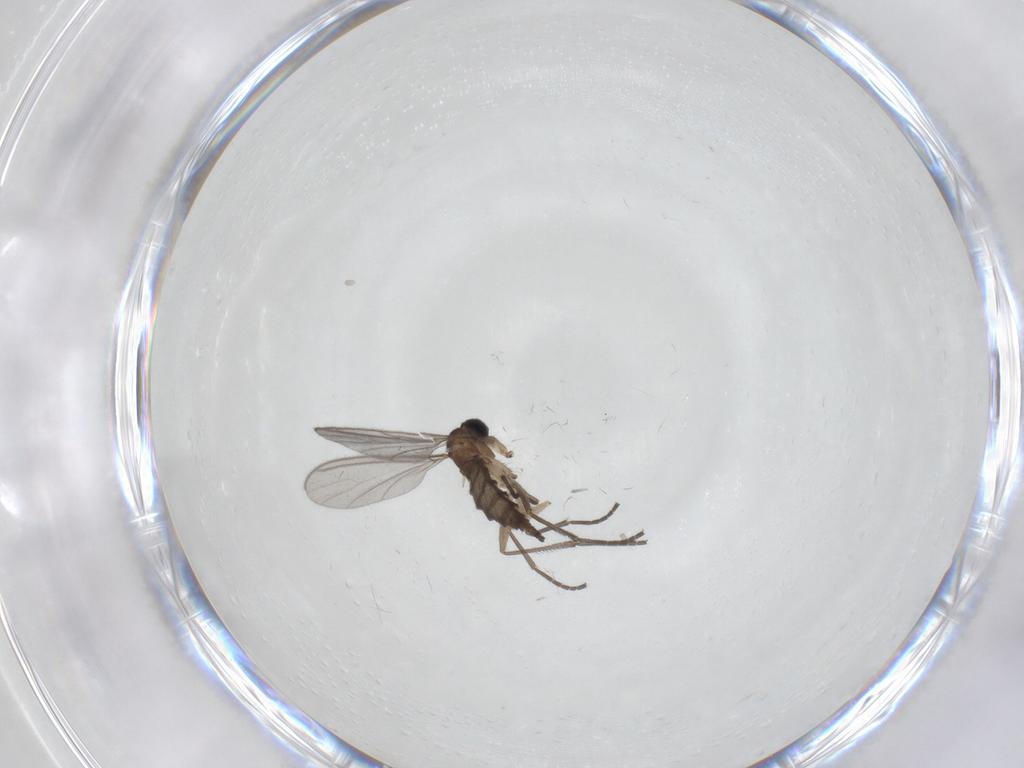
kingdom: Animalia
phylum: Arthropoda
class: Insecta
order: Diptera
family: Sciaridae
